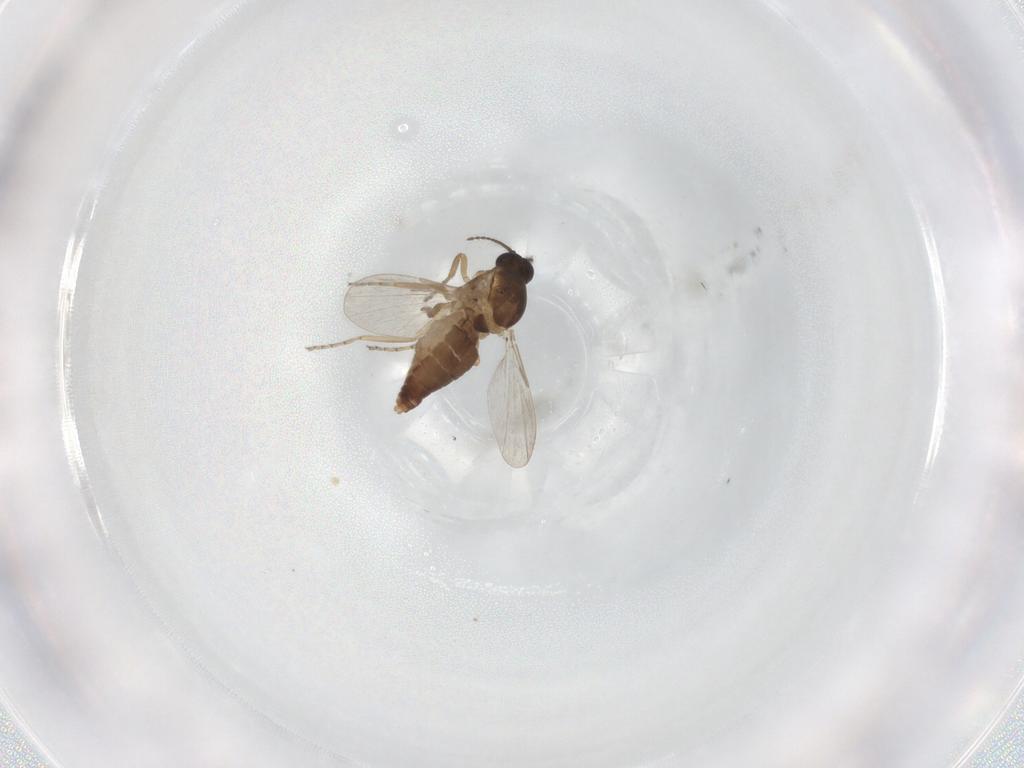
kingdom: Animalia
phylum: Arthropoda
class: Insecta
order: Diptera
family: Ceratopogonidae
